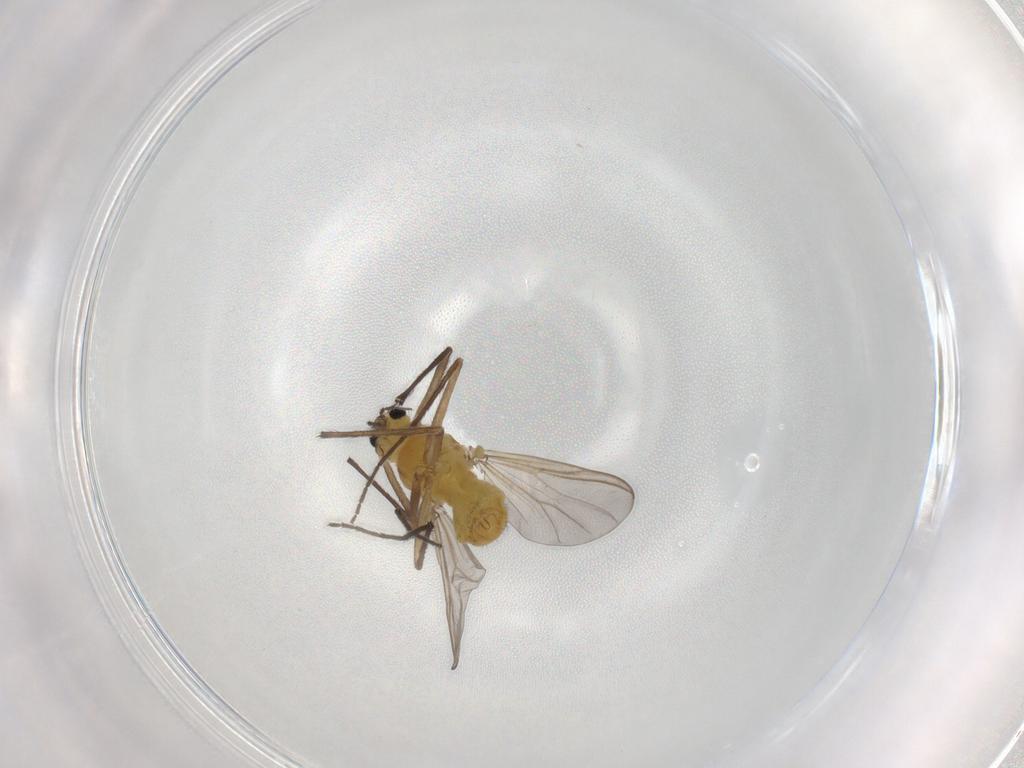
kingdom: Animalia
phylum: Arthropoda
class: Insecta
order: Diptera
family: Chironomidae
